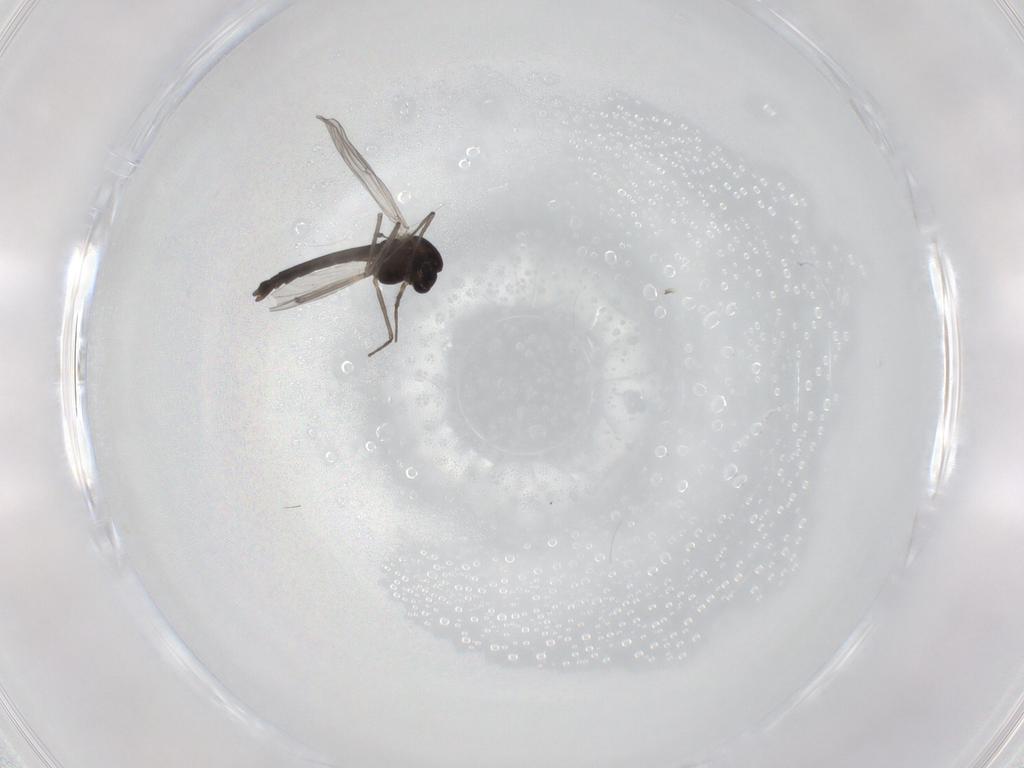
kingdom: Animalia
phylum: Arthropoda
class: Insecta
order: Diptera
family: Chironomidae
